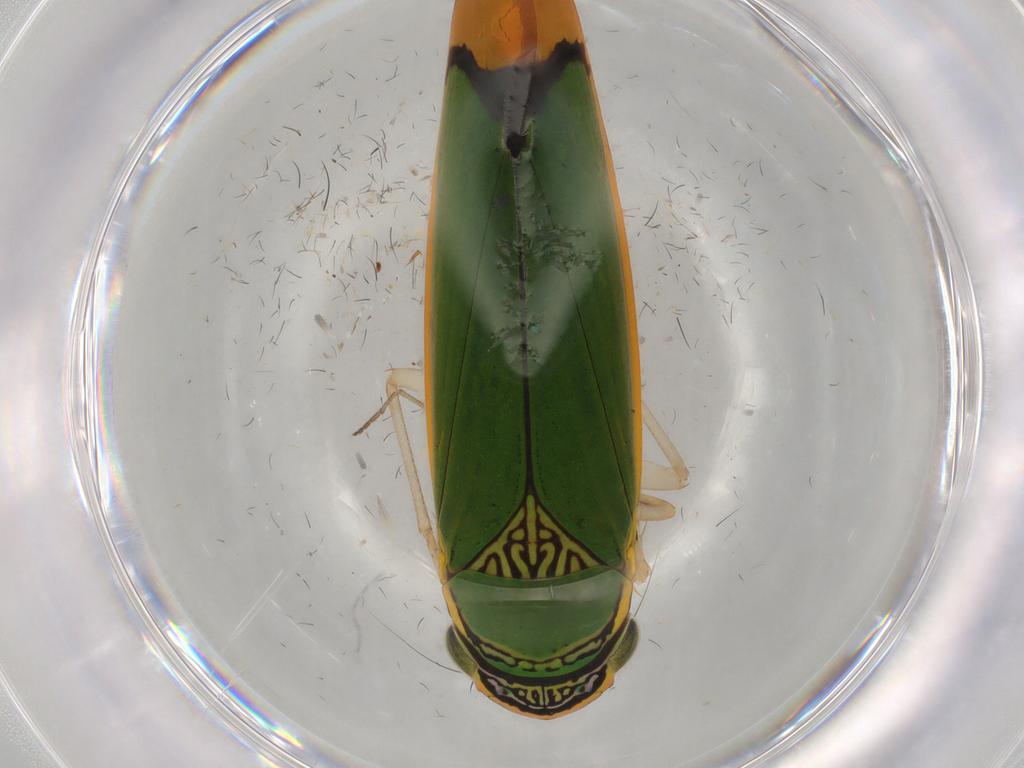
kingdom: Animalia
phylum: Arthropoda
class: Insecta
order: Hemiptera
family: Cicadellidae
